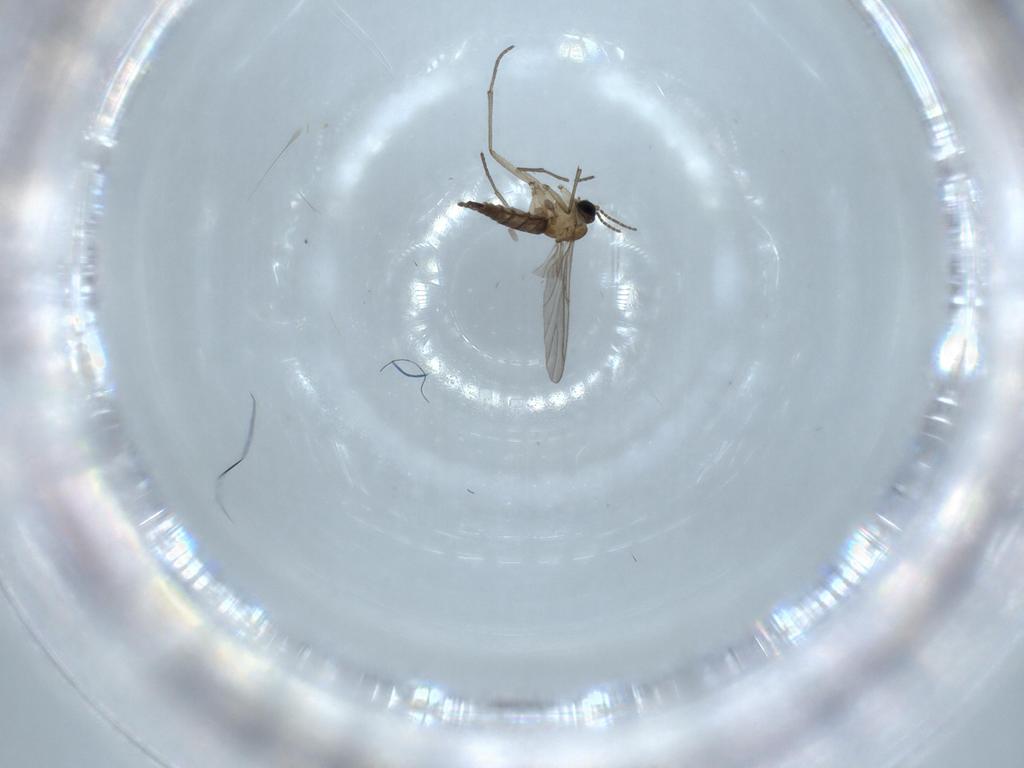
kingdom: Animalia
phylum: Arthropoda
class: Insecta
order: Diptera
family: Sciaridae
